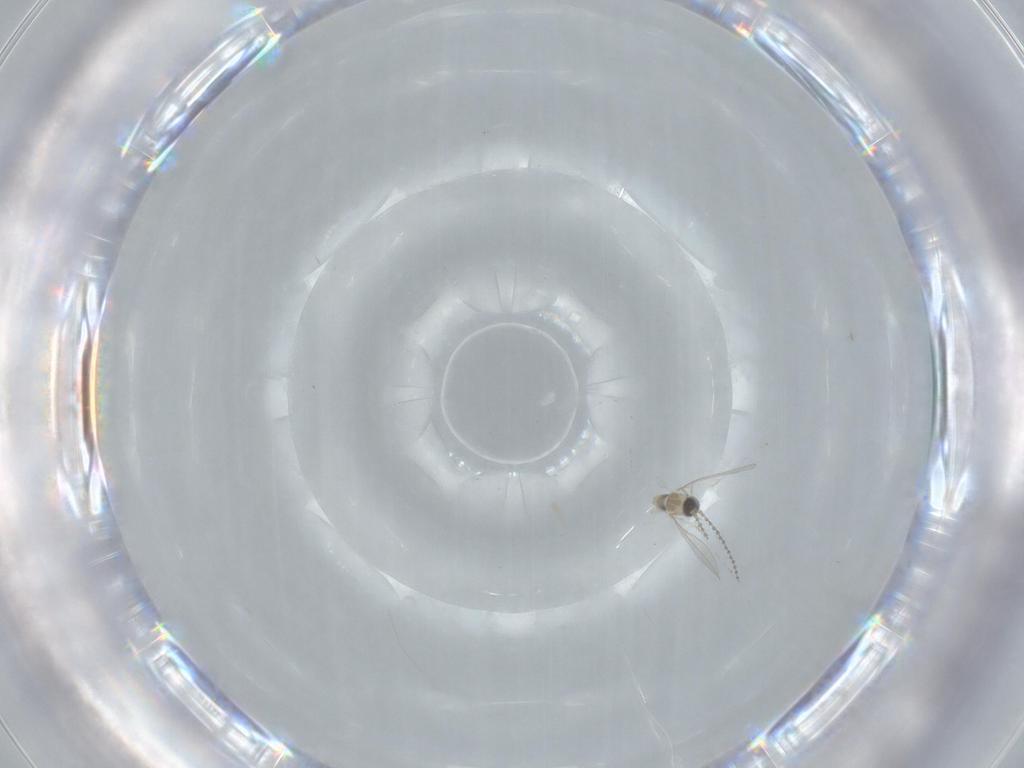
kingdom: Animalia
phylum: Arthropoda
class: Insecta
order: Diptera
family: Cecidomyiidae
